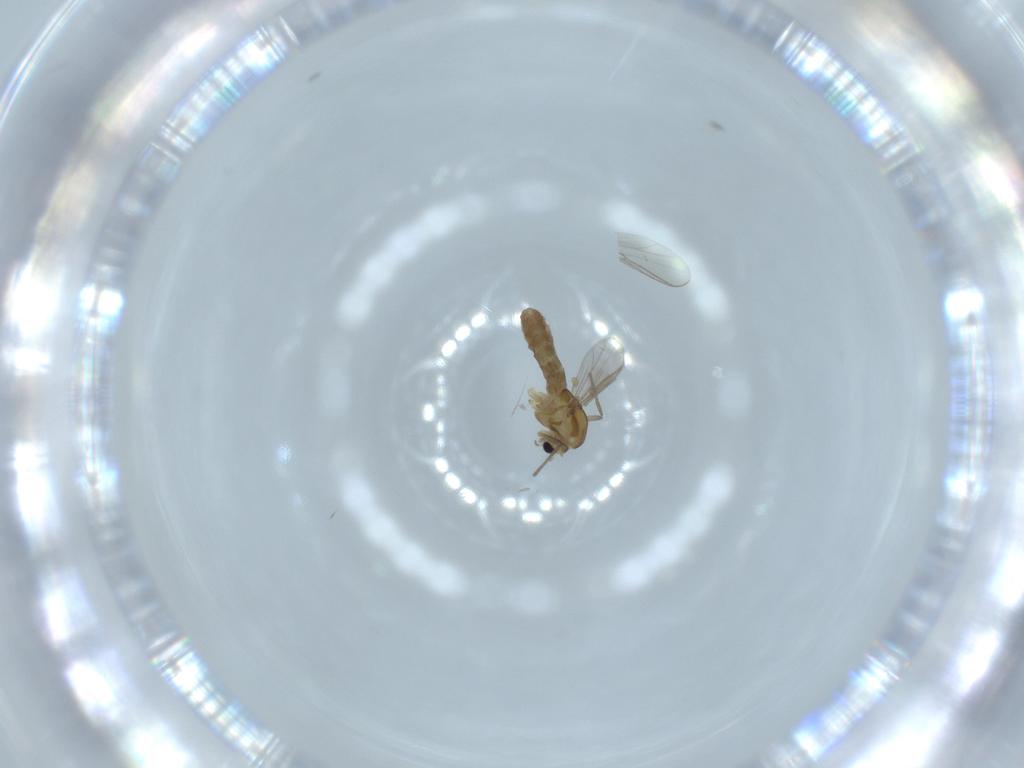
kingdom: Animalia
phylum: Arthropoda
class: Insecta
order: Diptera
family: Chironomidae
